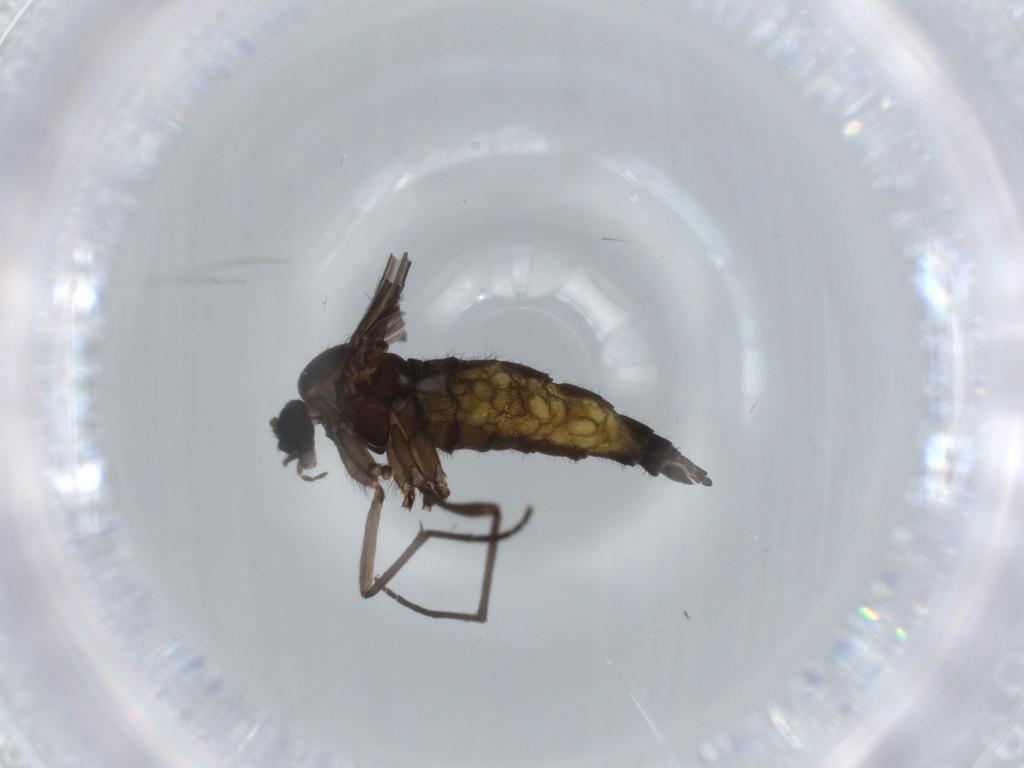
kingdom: Animalia
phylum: Arthropoda
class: Insecta
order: Diptera
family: Sciaridae
